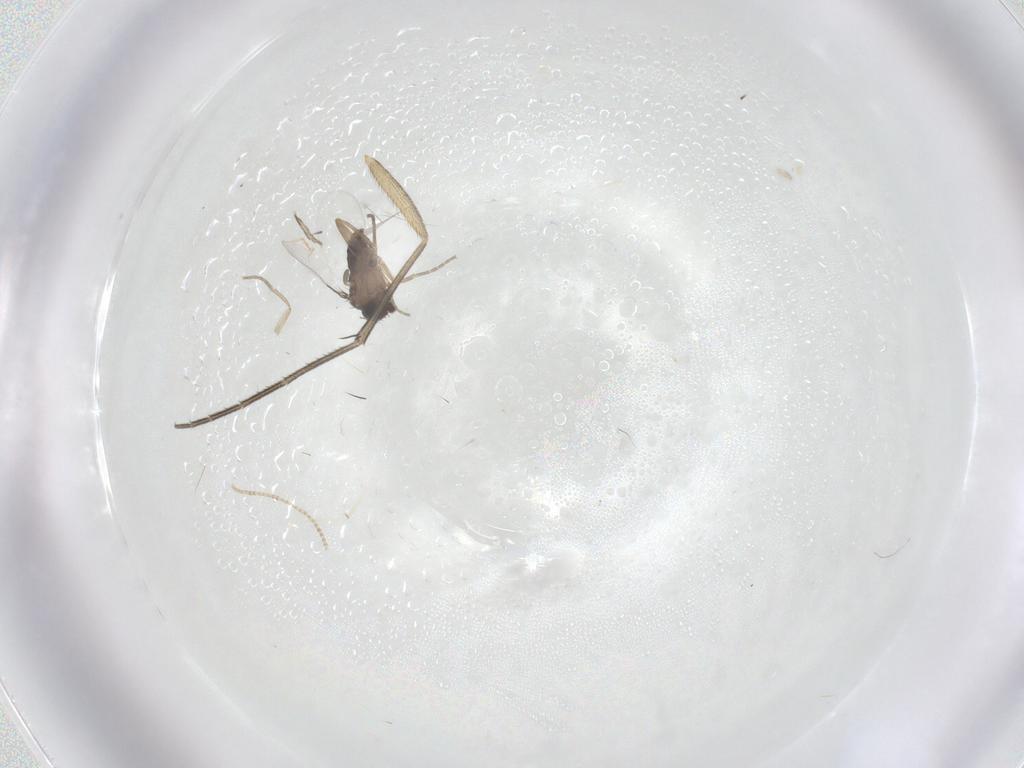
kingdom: Animalia
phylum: Arthropoda
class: Insecta
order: Diptera
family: Phoridae
